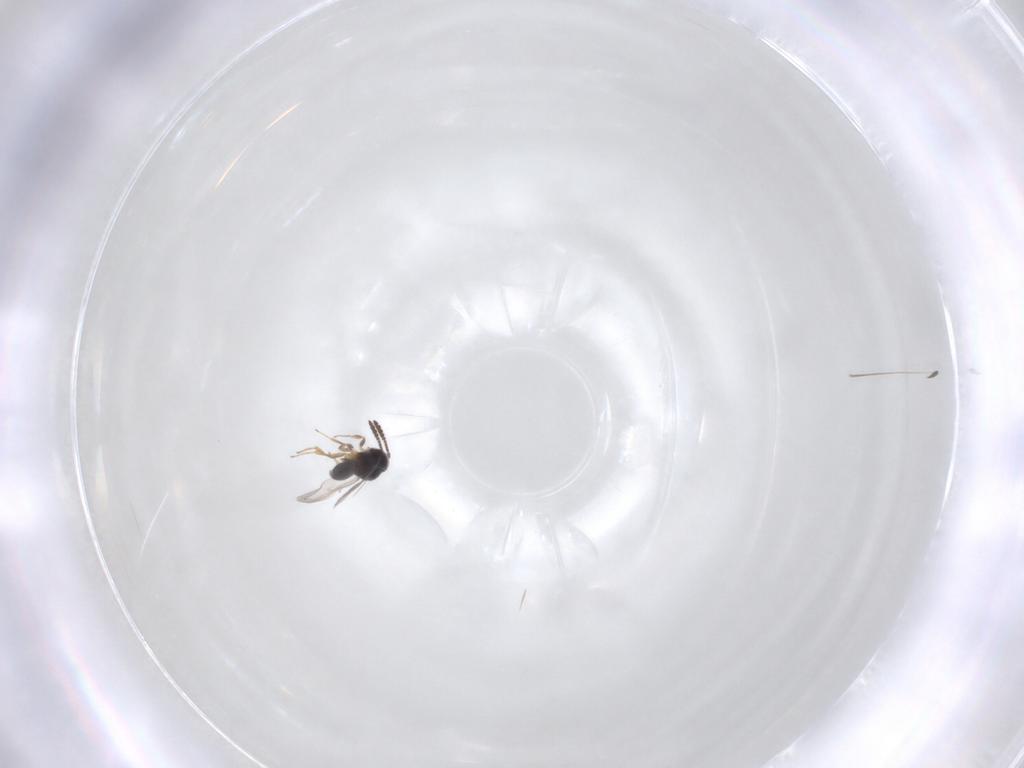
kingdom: Animalia
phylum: Arthropoda
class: Insecta
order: Hymenoptera
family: Scelionidae
